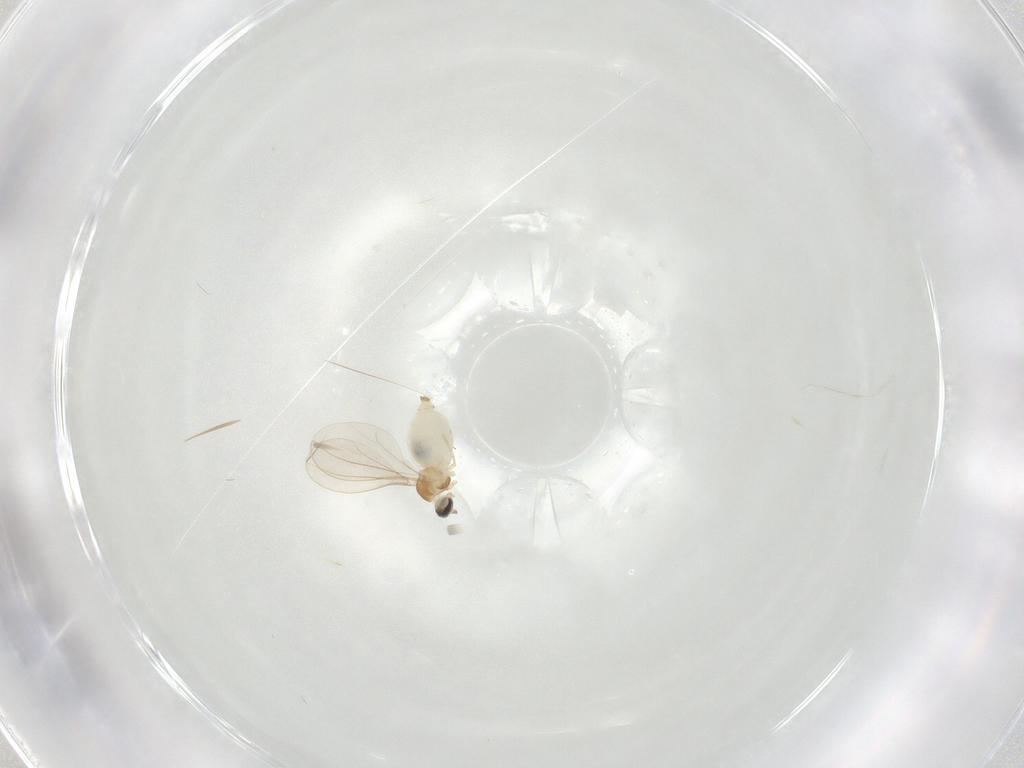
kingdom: Animalia
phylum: Arthropoda
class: Insecta
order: Diptera
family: Cecidomyiidae
